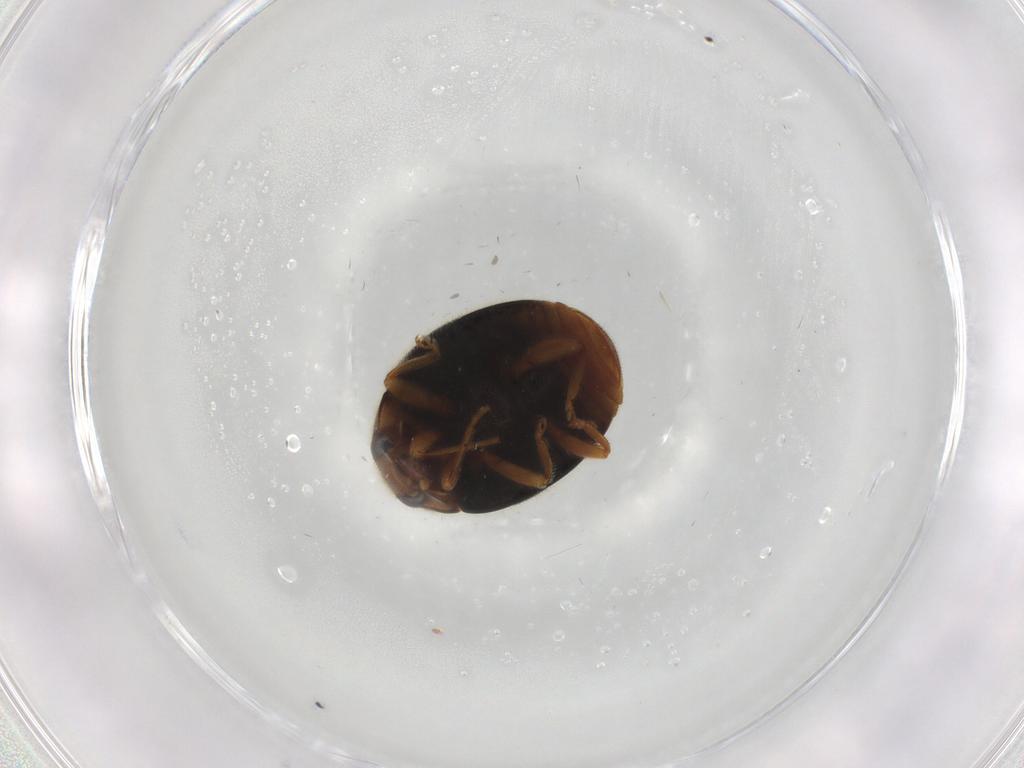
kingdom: Animalia
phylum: Arthropoda
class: Insecta
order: Coleoptera
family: Coccinellidae
